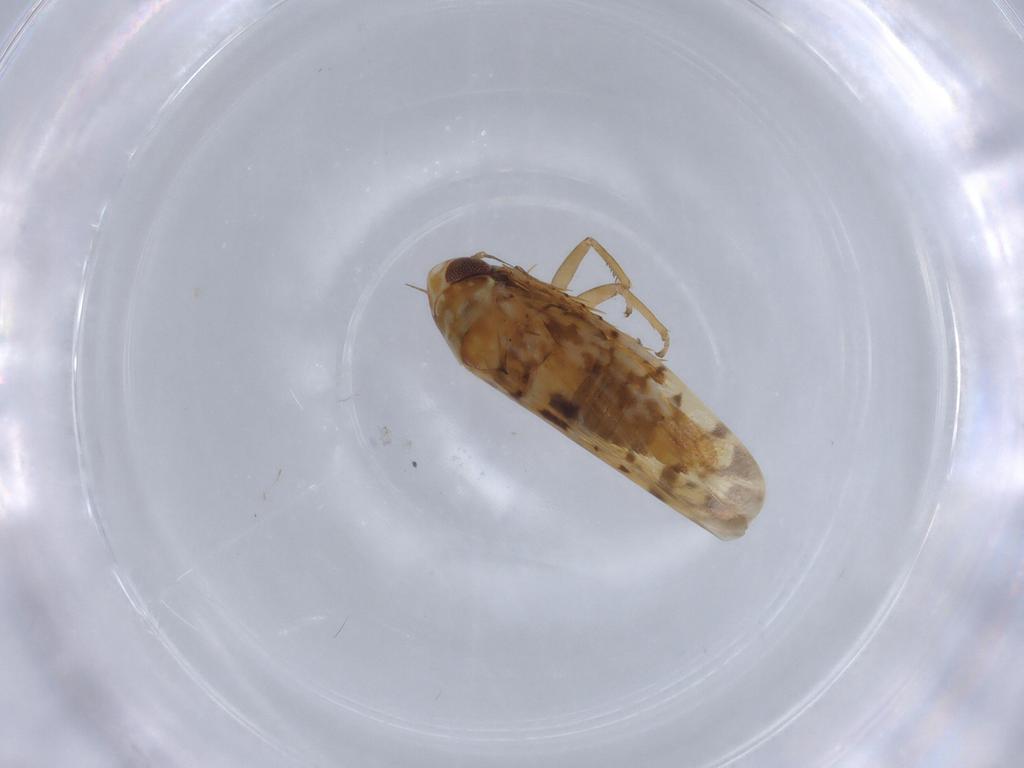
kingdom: Animalia
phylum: Arthropoda
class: Insecta
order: Hemiptera
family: Cicadellidae
